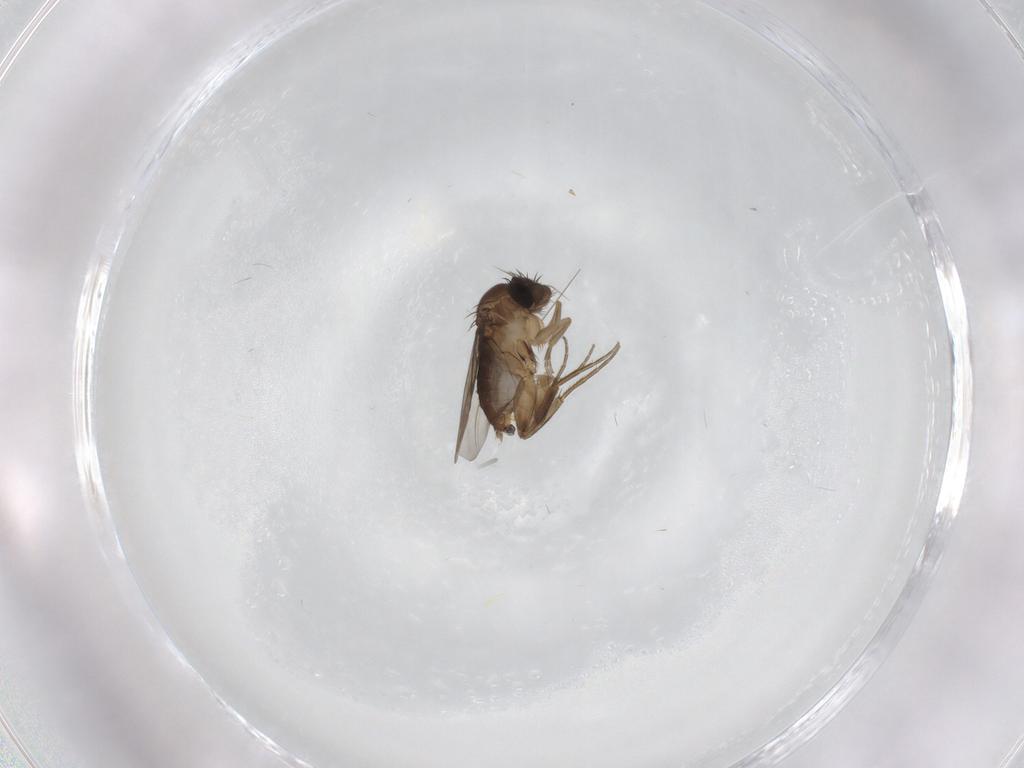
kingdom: Animalia
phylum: Arthropoda
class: Insecta
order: Diptera
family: Phoridae
